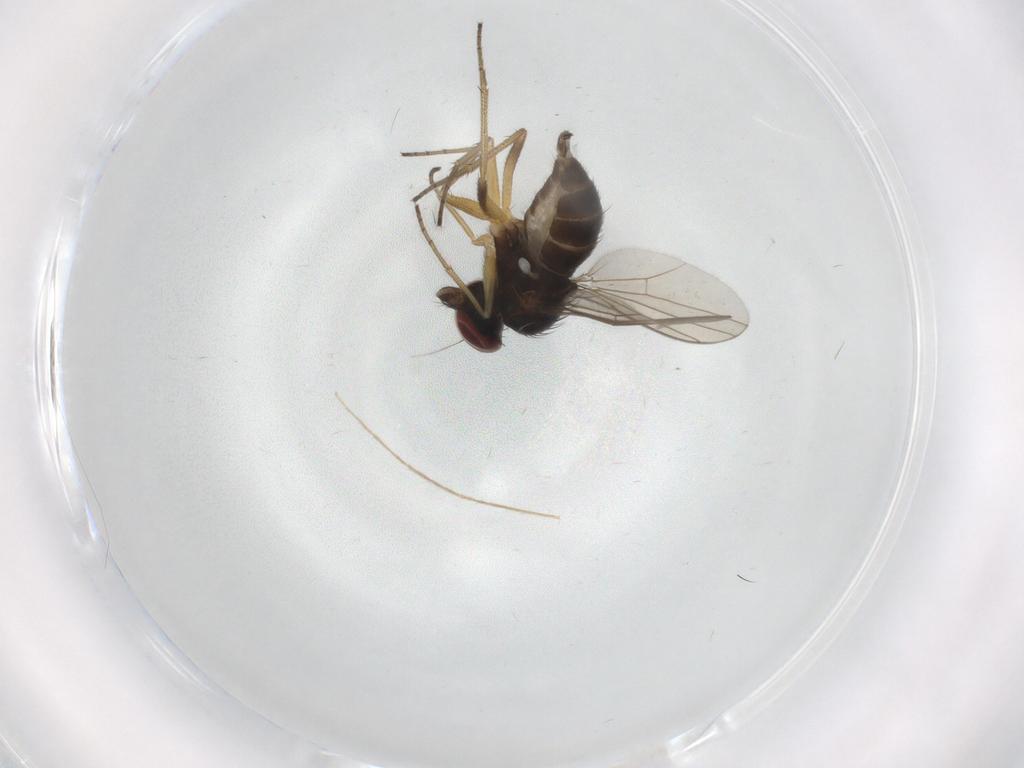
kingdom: Animalia
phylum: Arthropoda
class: Insecta
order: Diptera
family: Dolichopodidae
